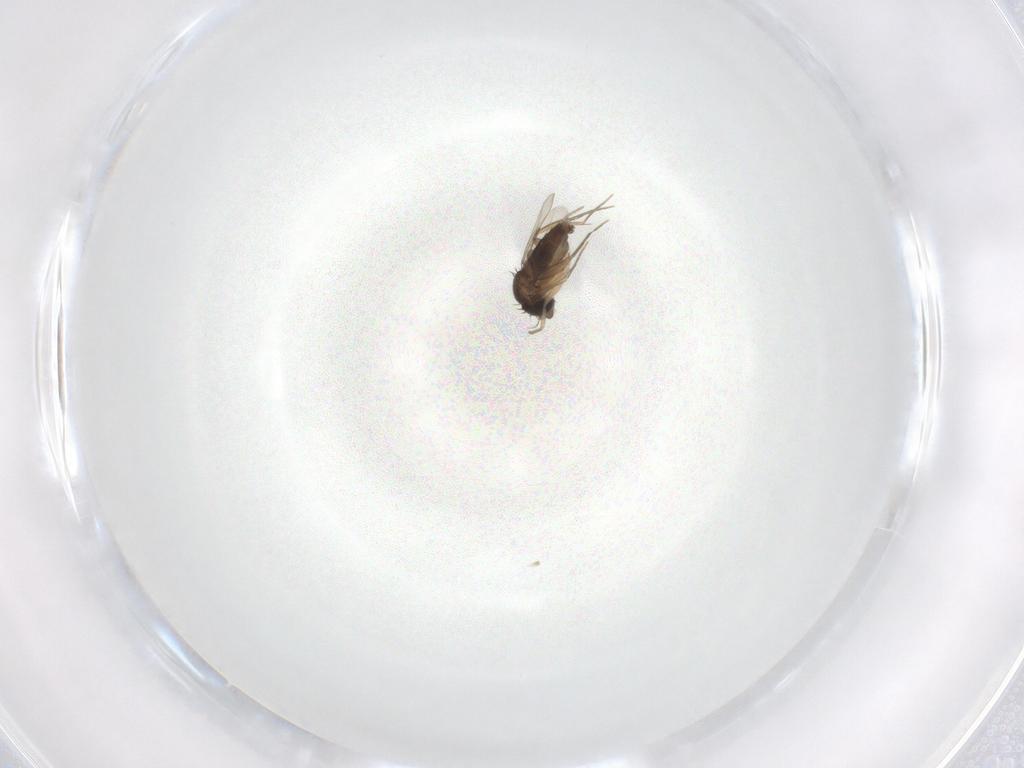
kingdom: Animalia
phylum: Arthropoda
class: Insecta
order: Diptera
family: Phoridae
